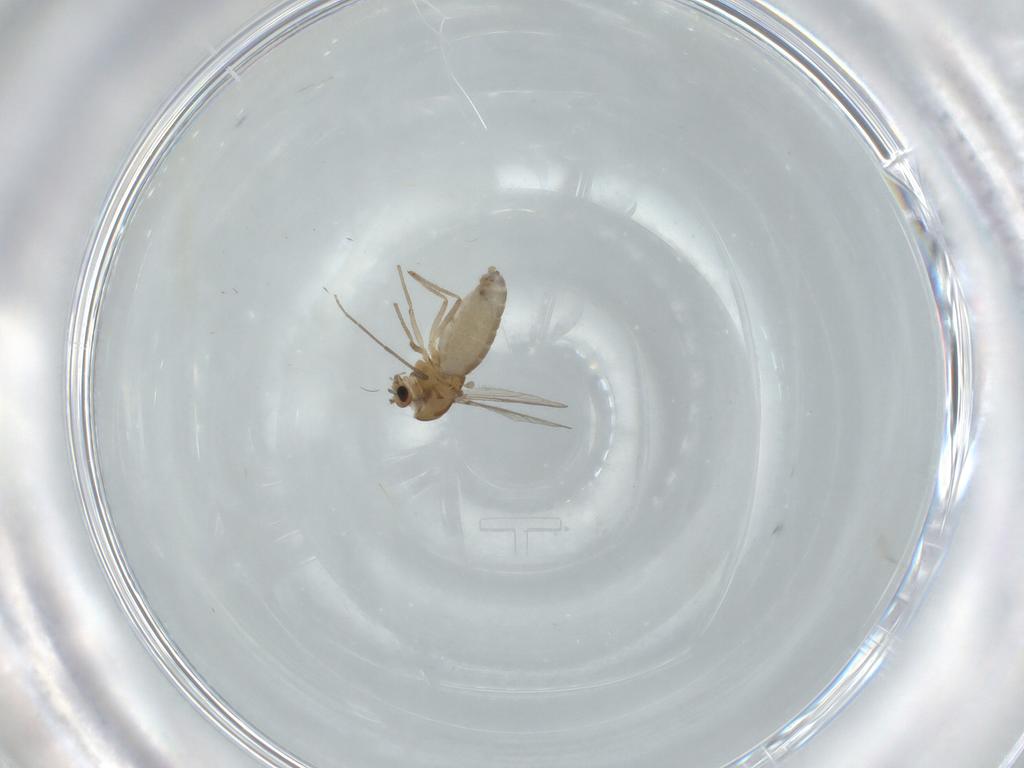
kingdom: Animalia
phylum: Arthropoda
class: Insecta
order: Diptera
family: Chironomidae
